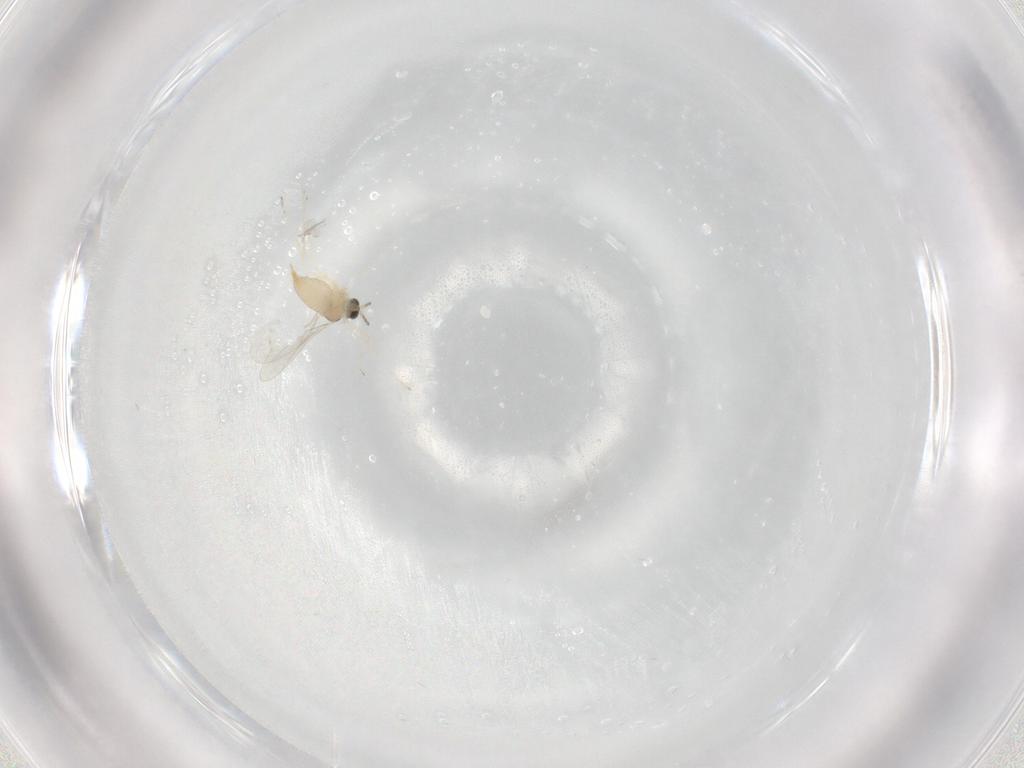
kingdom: Animalia
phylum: Arthropoda
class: Insecta
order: Diptera
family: Cecidomyiidae
